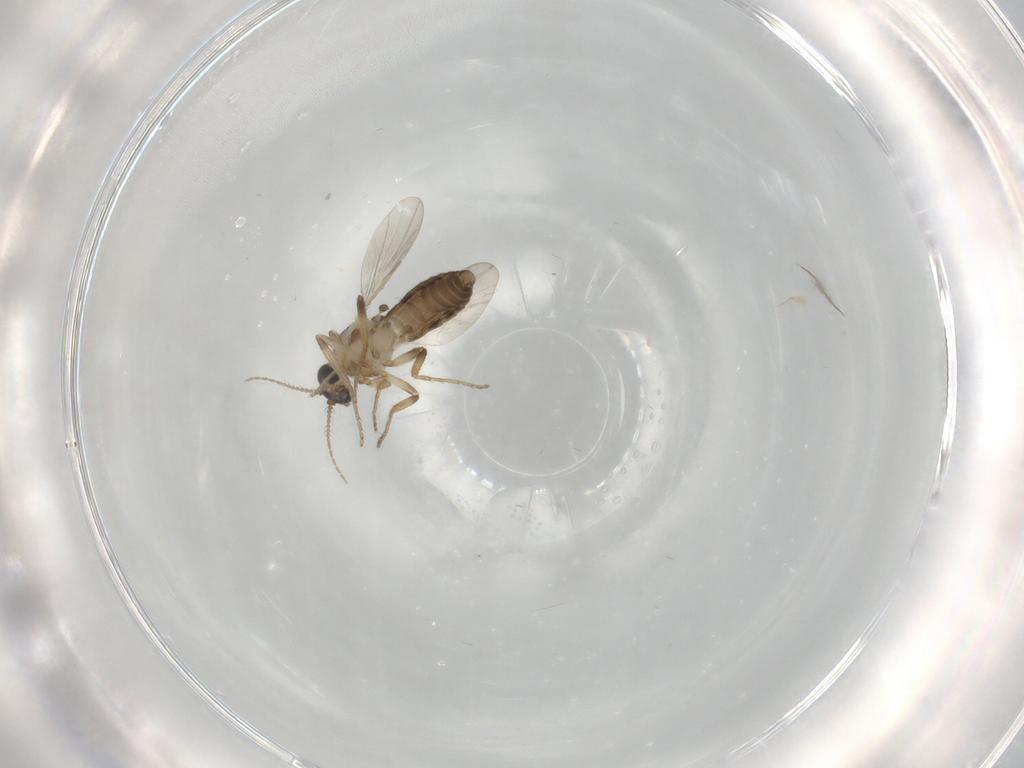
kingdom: Animalia
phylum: Arthropoda
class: Insecta
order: Diptera
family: Ceratopogonidae
